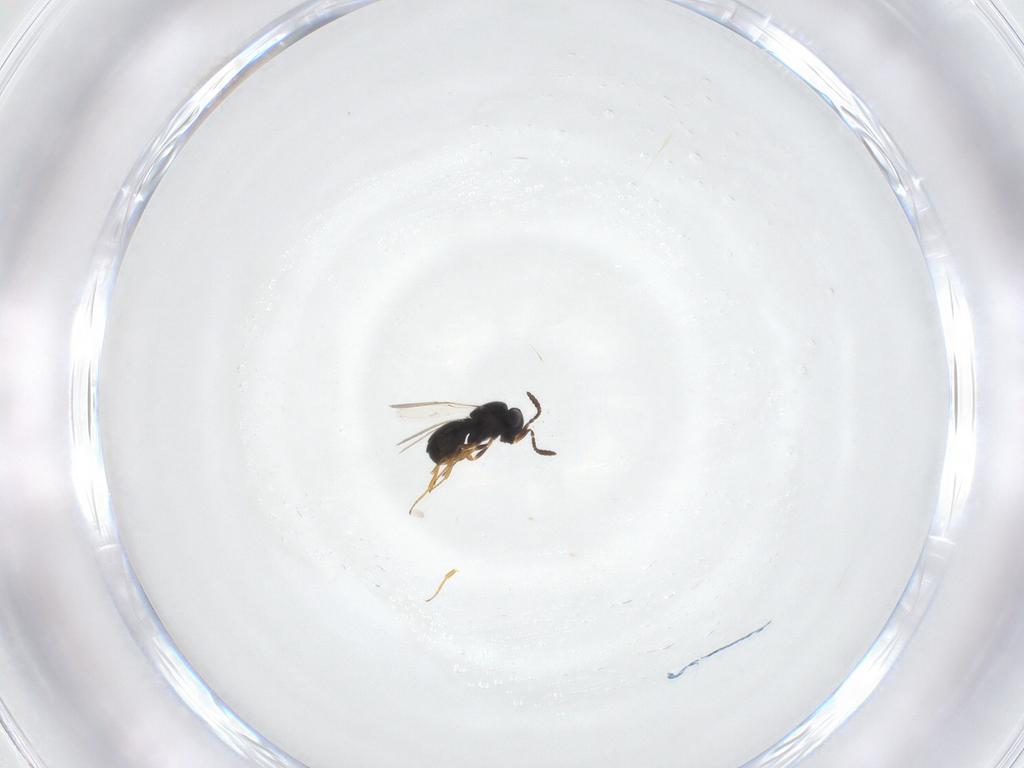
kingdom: Animalia
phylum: Arthropoda
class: Insecta
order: Hymenoptera
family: Scelionidae
